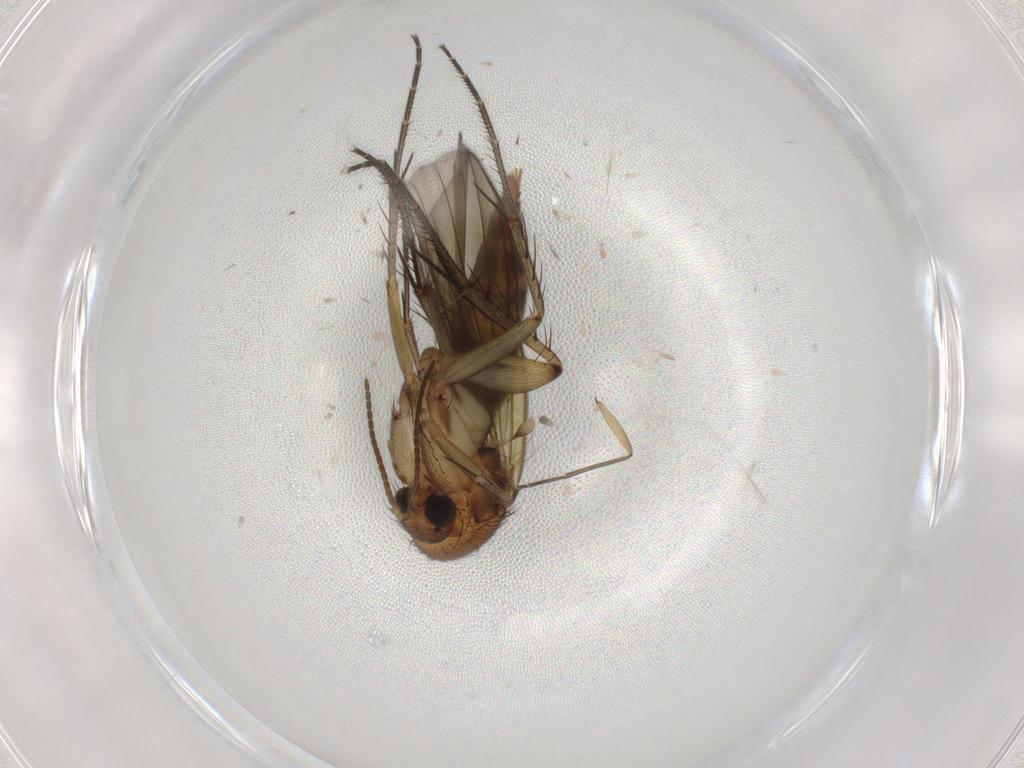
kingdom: Animalia
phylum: Arthropoda
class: Insecta
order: Diptera
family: Mycetophilidae
